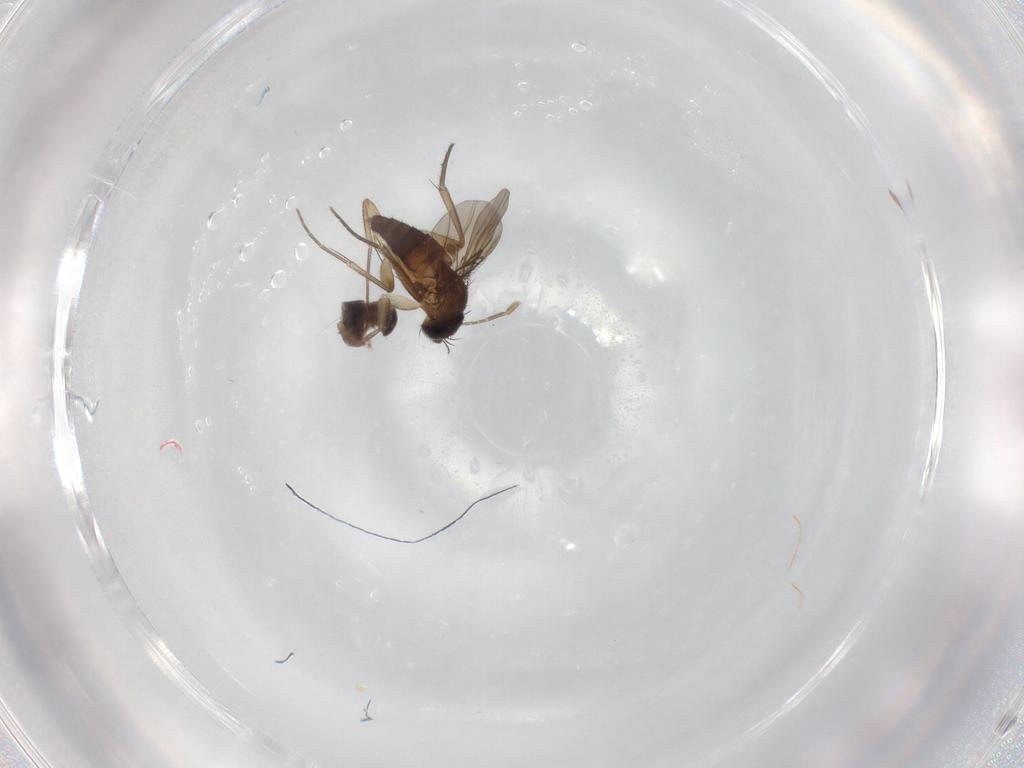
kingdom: Animalia
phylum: Arthropoda
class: Insecta
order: Diptera
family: Phoridae
